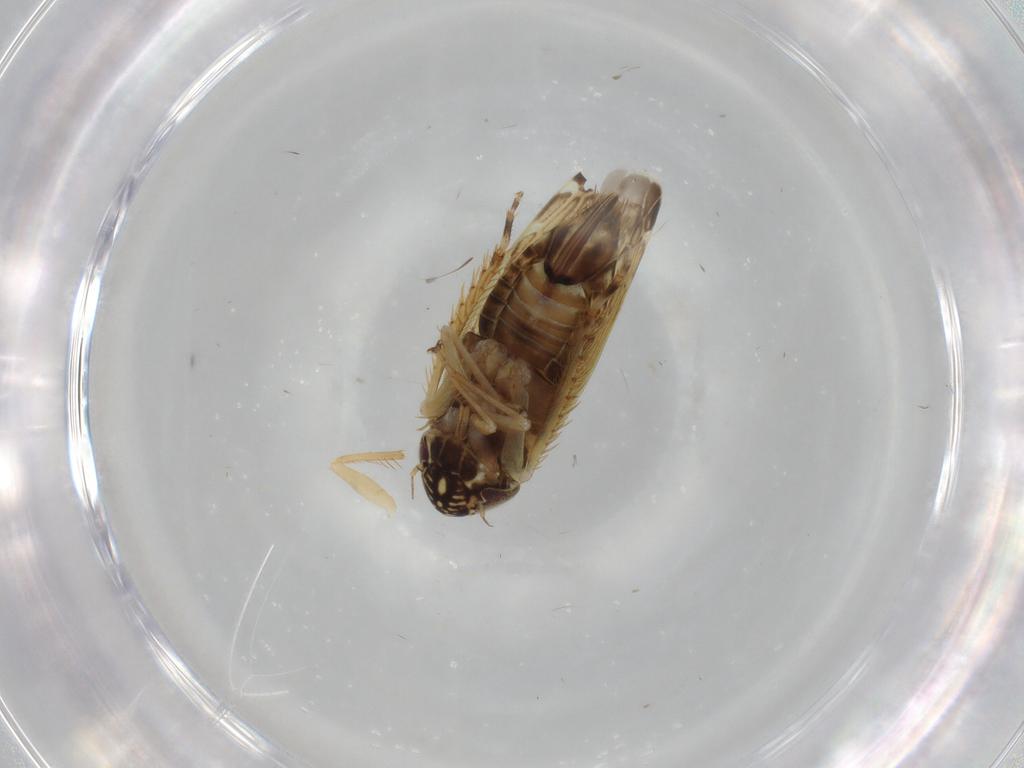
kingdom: Animalia
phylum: Arthropoda
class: Insecta
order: Hemiptera
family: Cicadellidae
